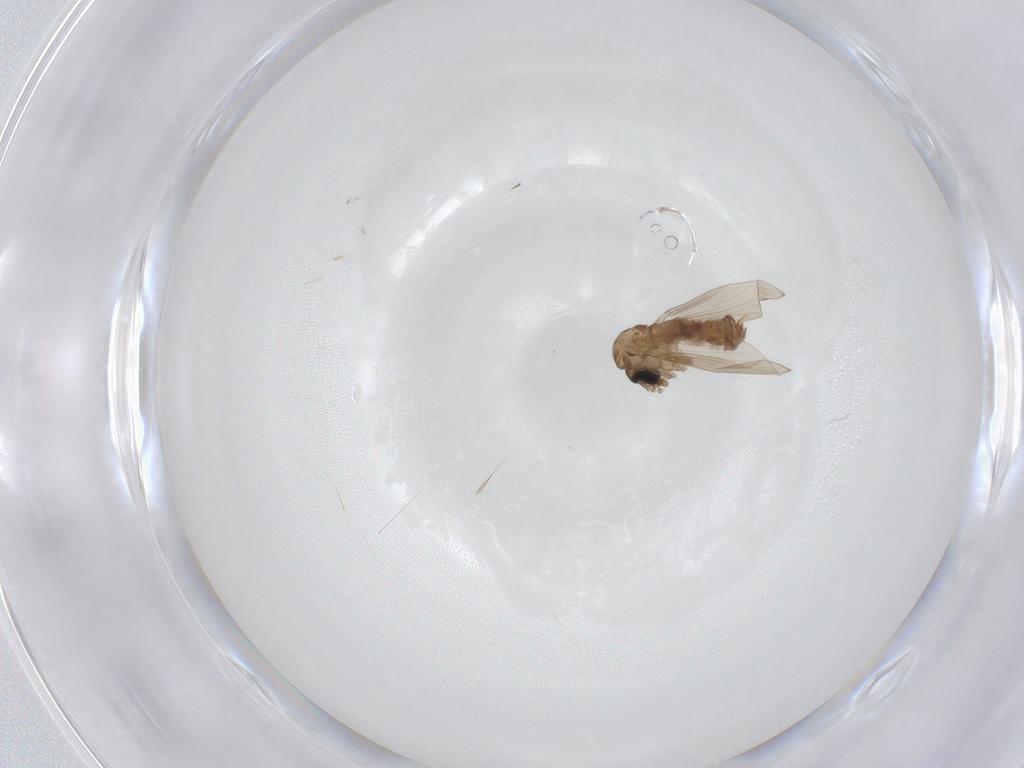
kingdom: Animalia
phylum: Arthropoda
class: Insecta
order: Diptera
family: Psychodidae
